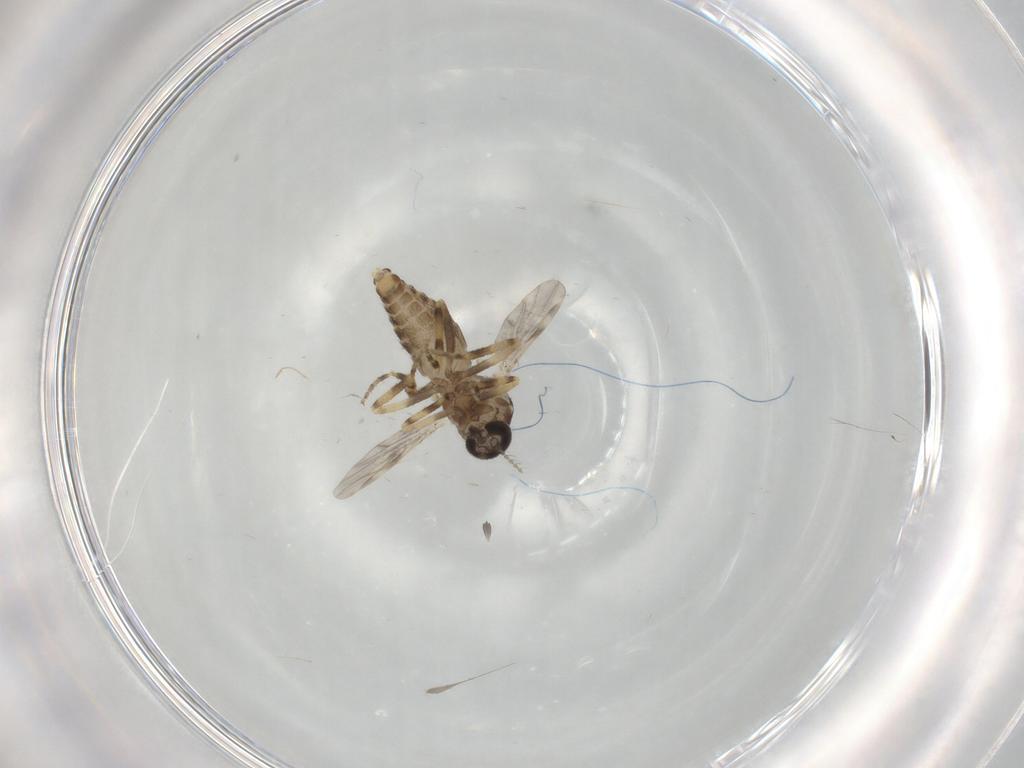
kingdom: Animalia
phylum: Arthropoda
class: Insecta
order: Diptera
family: Ceratopogonidae
